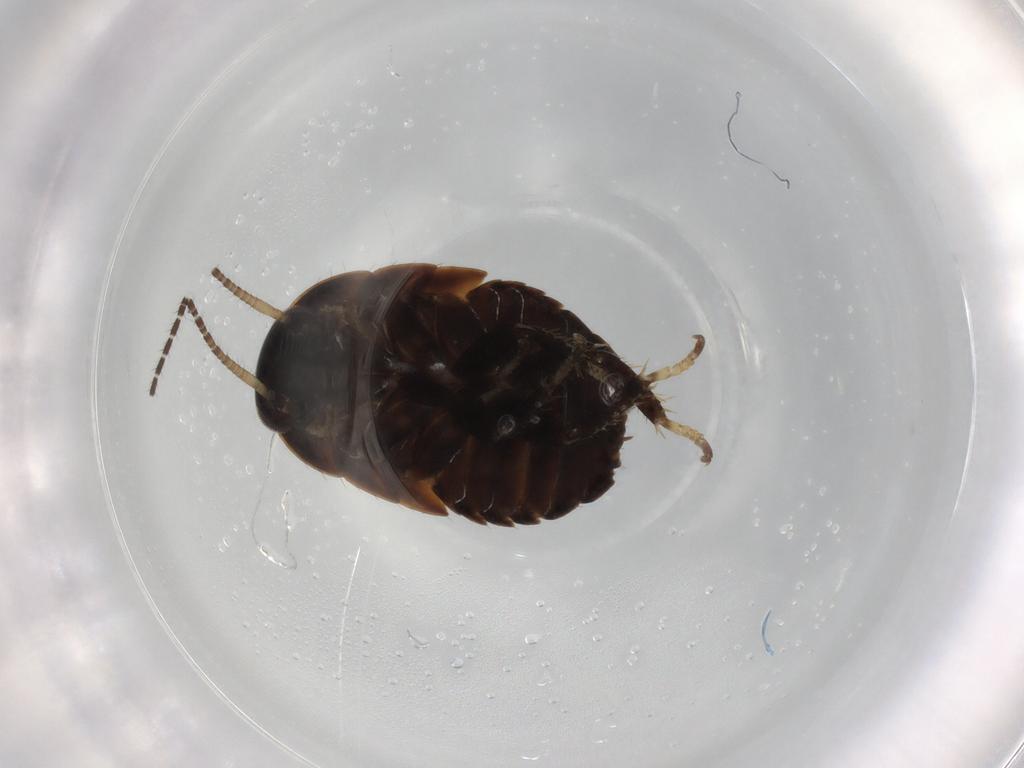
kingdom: Animalia
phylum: Arthropoda
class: Insecta
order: Blattodea
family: Pseudophyllodromiidae
